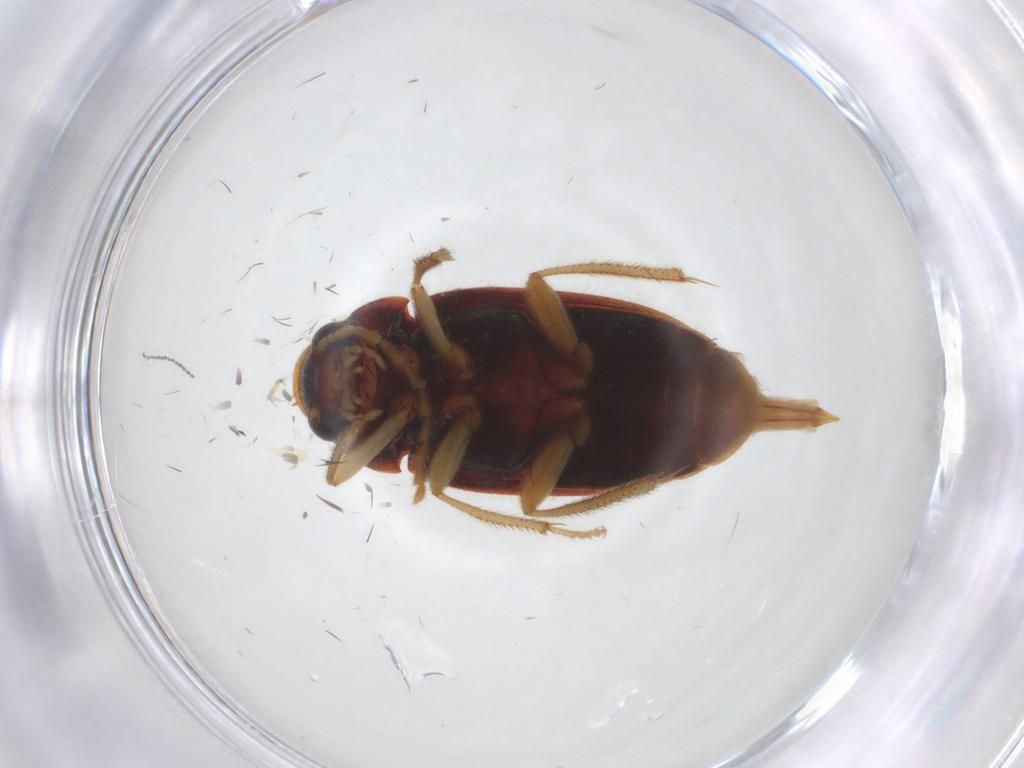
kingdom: Animalia
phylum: Arthropoda
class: Insecta
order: Coleoptera
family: Ptilodactylidae
